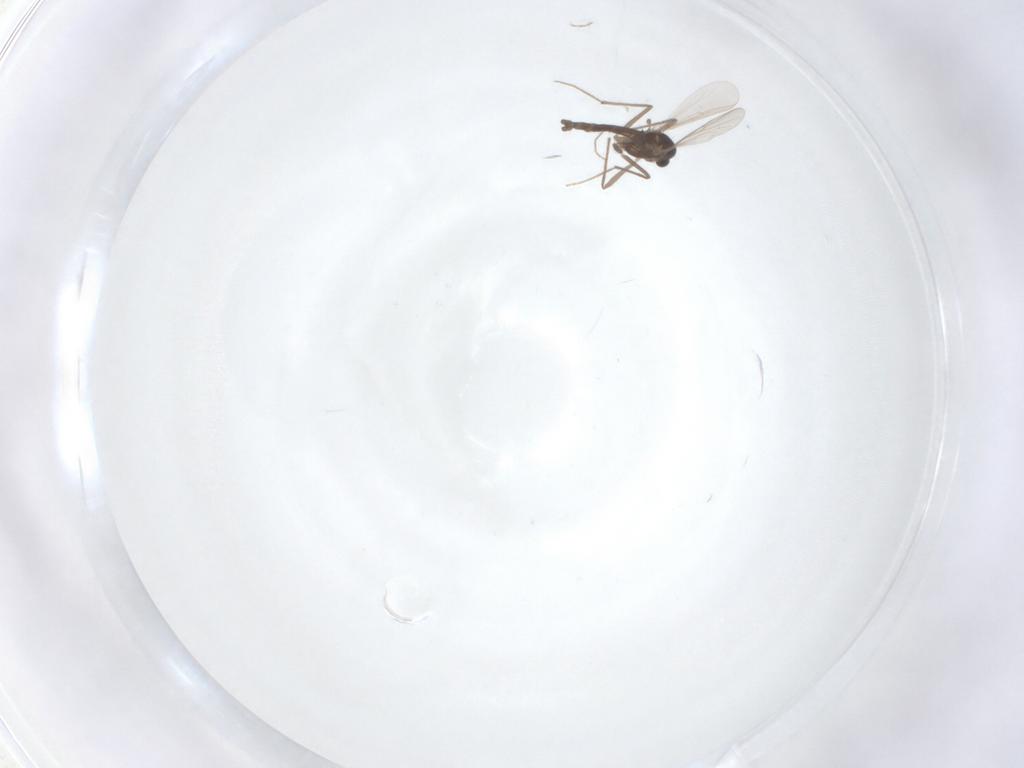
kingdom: Animalia
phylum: Arthropoda
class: Insecta
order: Diptera
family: Chironomidae
